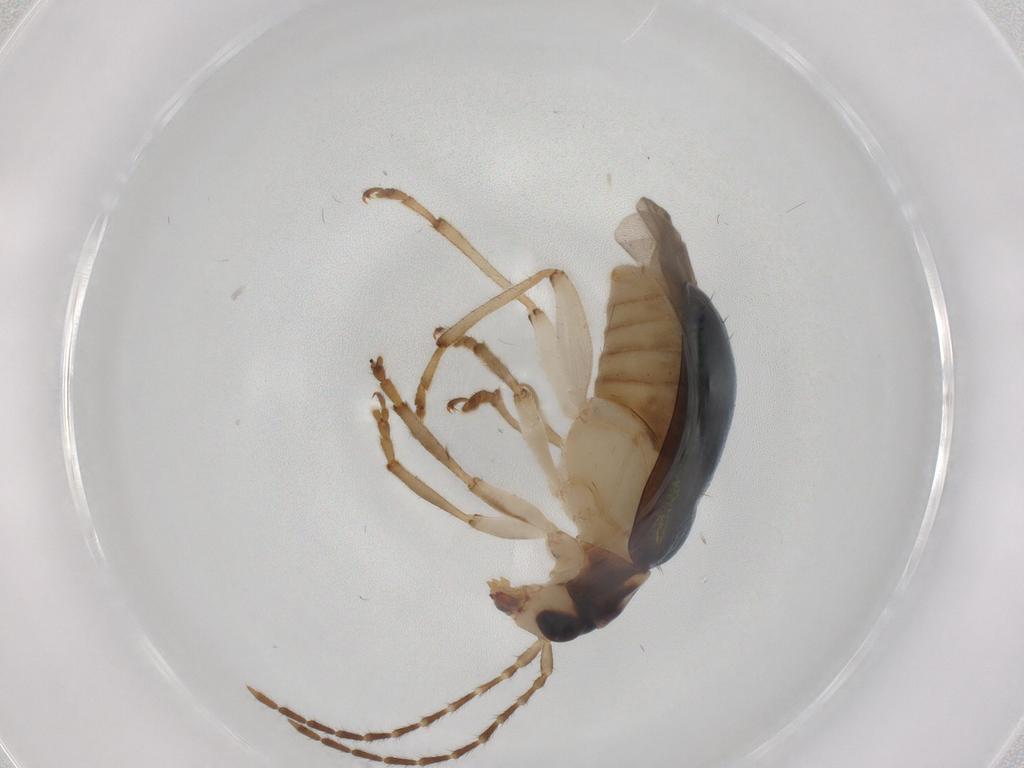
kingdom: Animalia
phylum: Arthropoda
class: Insecta
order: Coleoptera
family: Chrysomelidae
